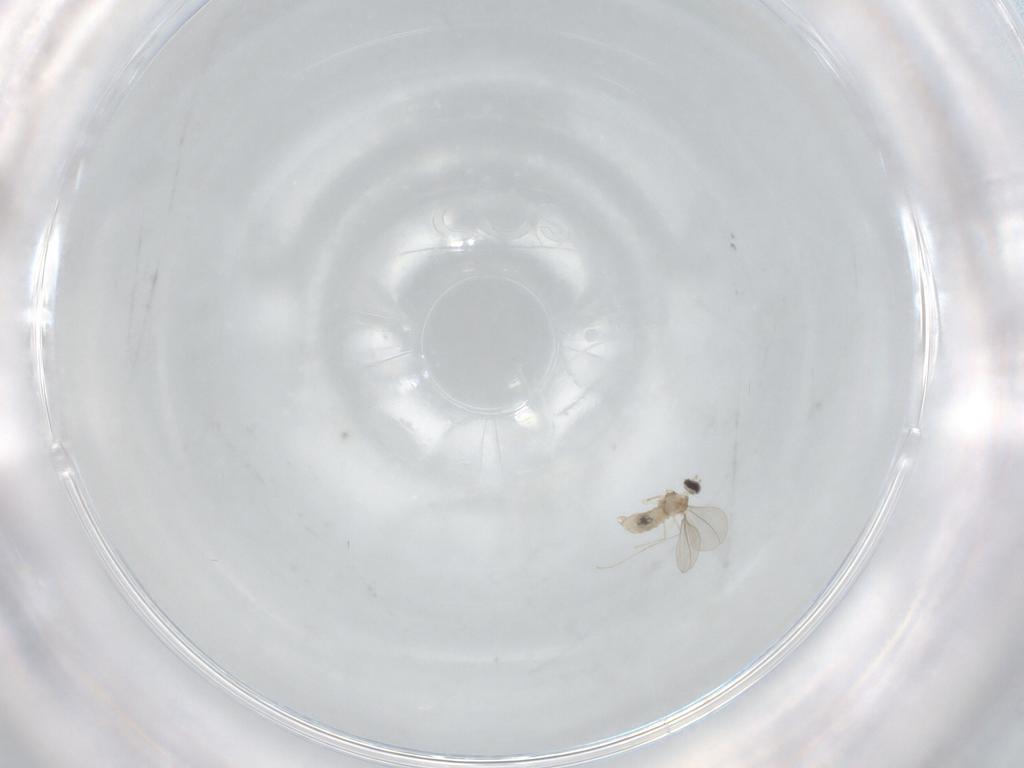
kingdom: Animalia
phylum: Arthropoda
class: Insecta
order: Diptera
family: Cecidomyiidae
